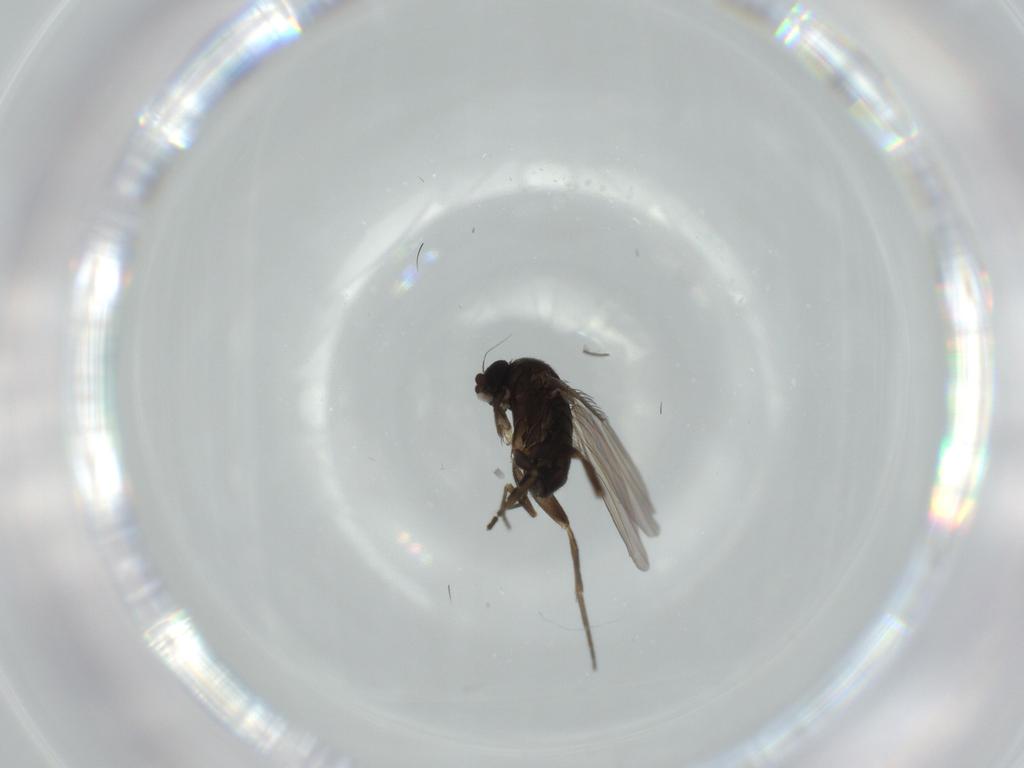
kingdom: Animalia
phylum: Arthropoda
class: Insecta
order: Diptera
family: Phoridae
